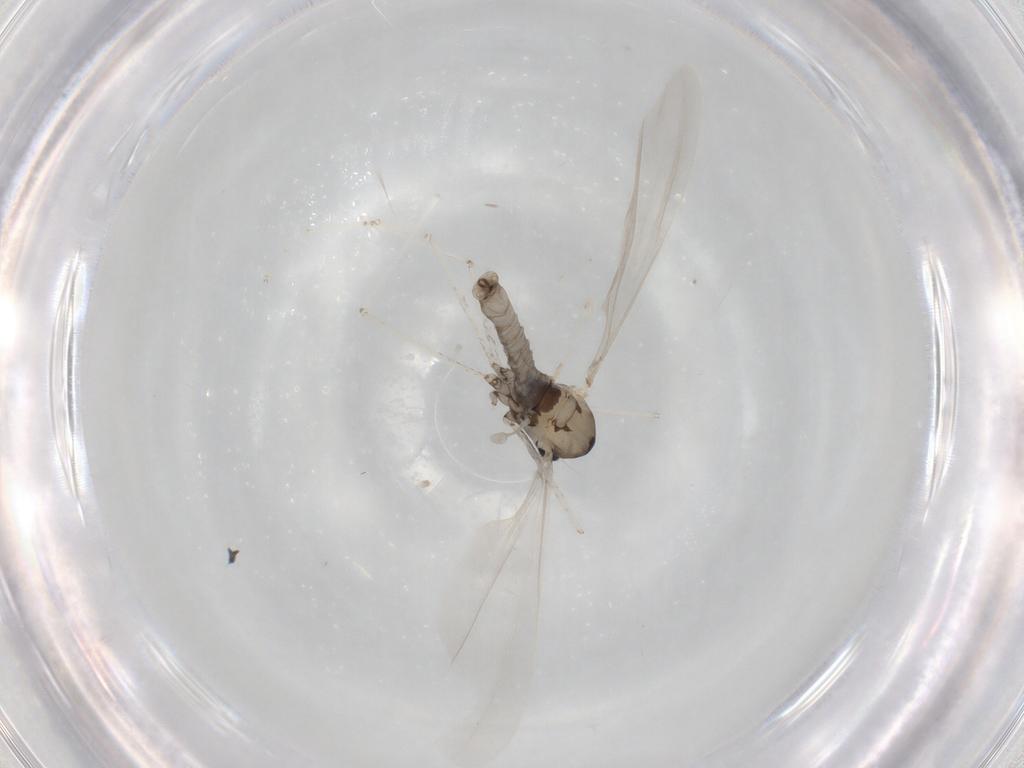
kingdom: Animalia
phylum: Arthropoda
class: Insecta
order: Diptera
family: Cecidomyiidae
